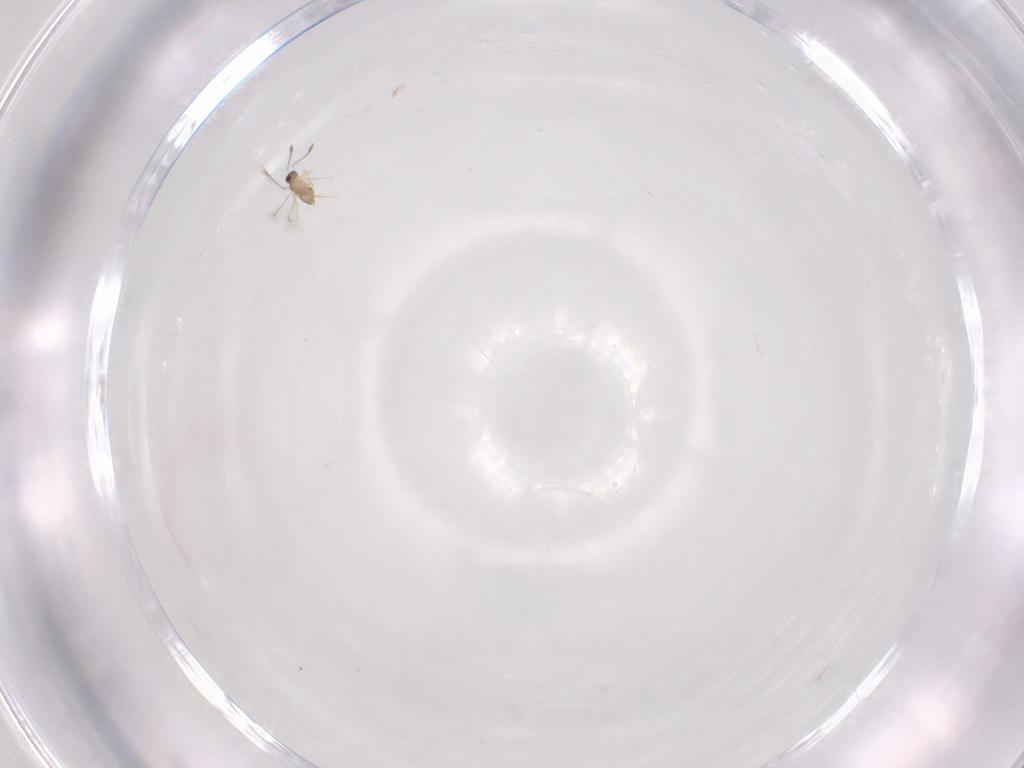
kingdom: Animalia
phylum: Arthropoda
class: Insecta
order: Hymenoptera
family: Mymaridae
